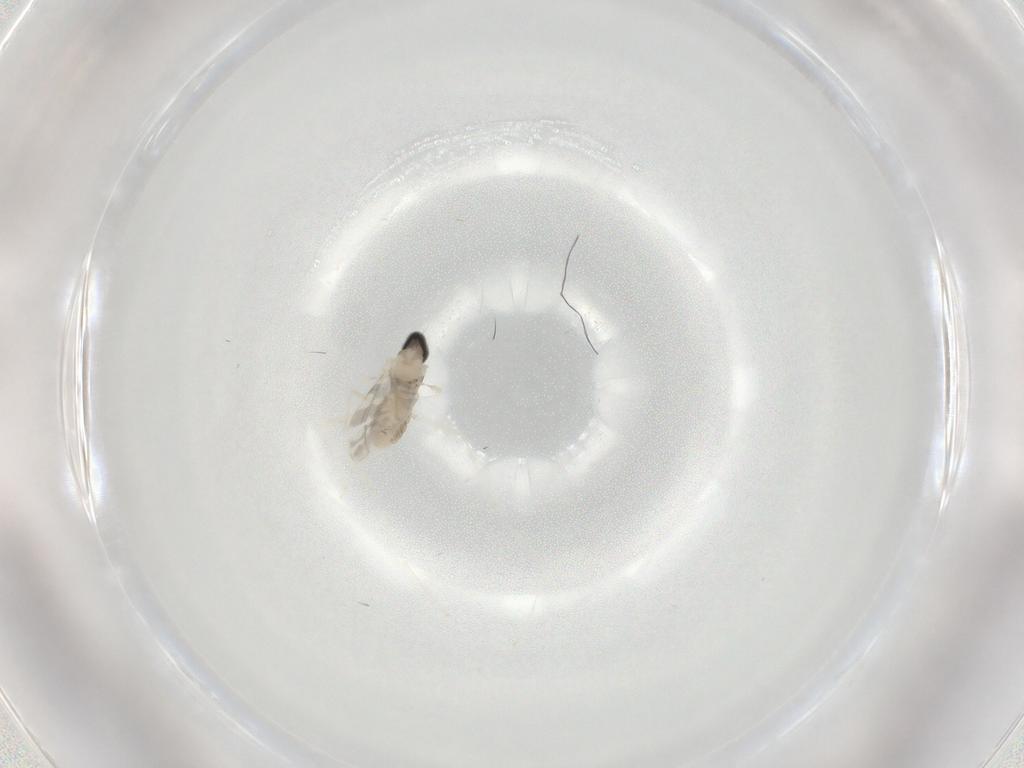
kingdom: Animalia
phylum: Arthropoda
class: Insecta
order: Diptera
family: Cecidomyiidae
